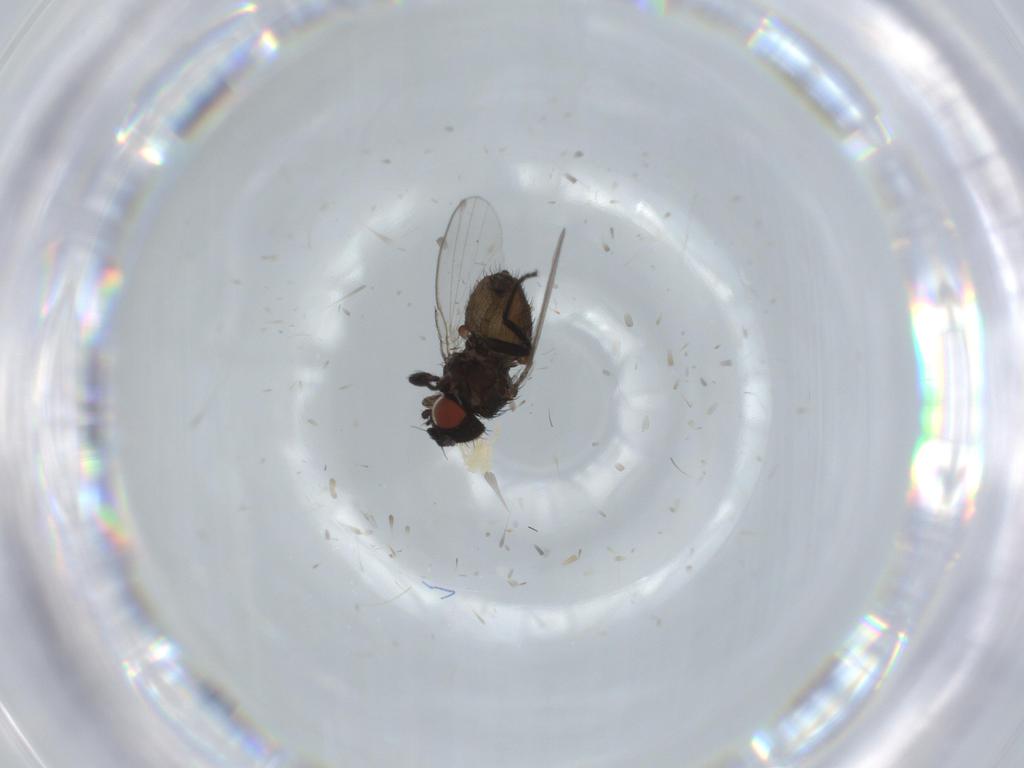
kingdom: Animalia
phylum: Arthropoda
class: Insecta
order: Diptera
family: Milichiidae
